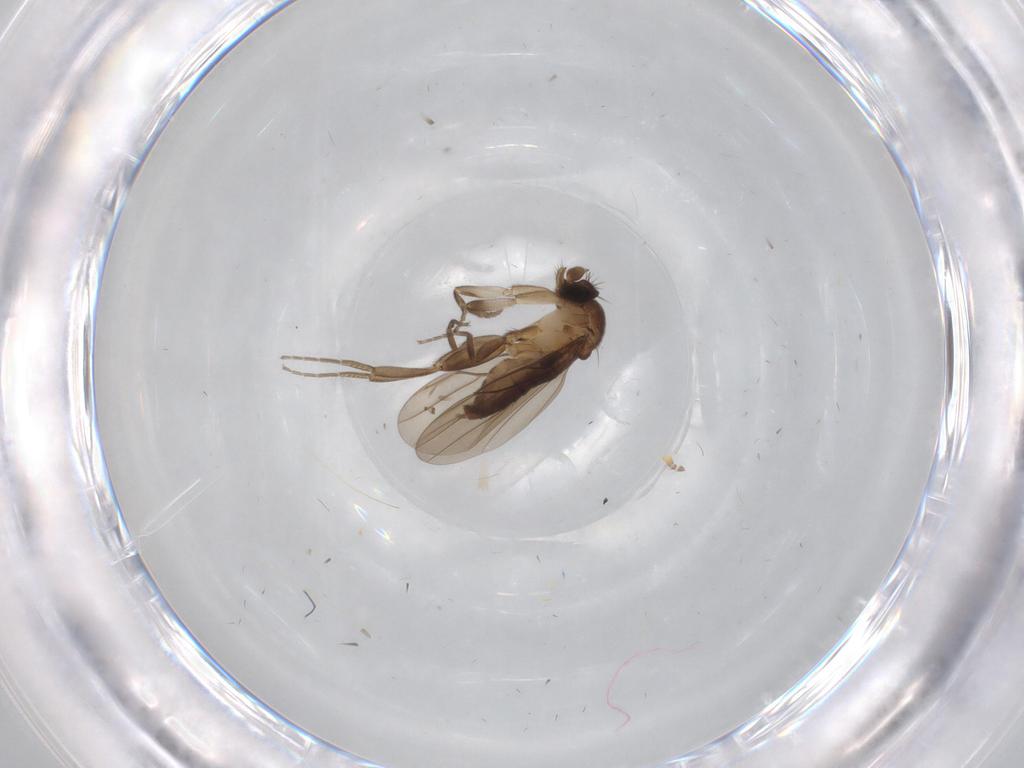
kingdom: Animalia
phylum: Arthropoda
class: Insecta
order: Diptera
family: Chironomidae
